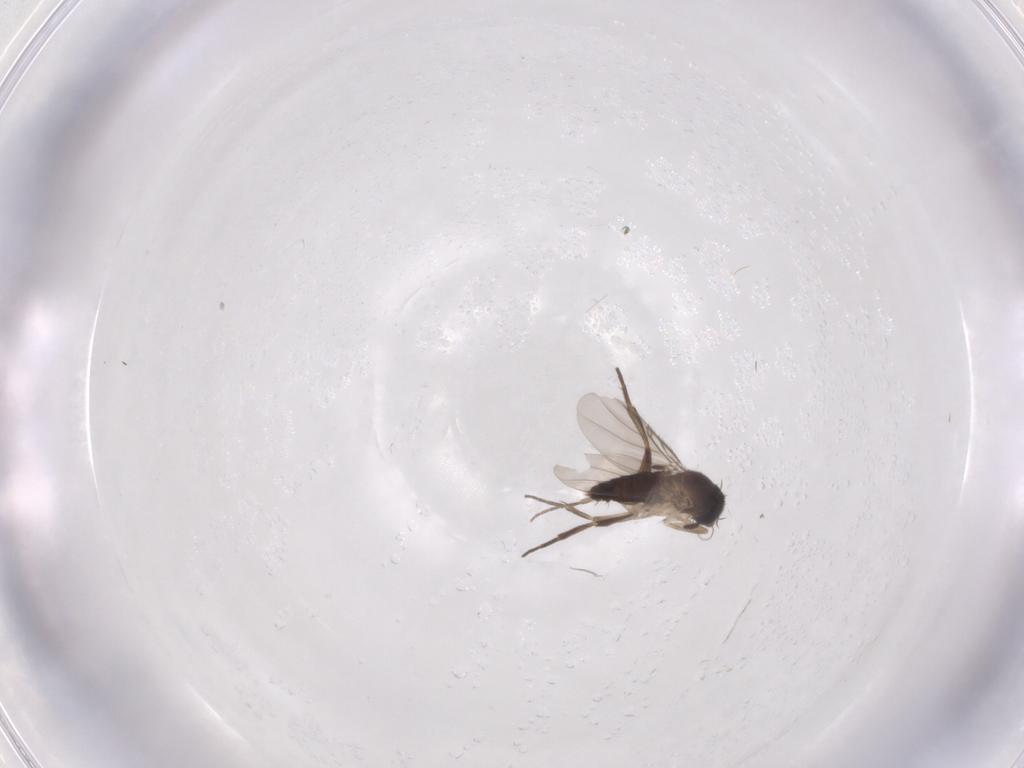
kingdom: Animalia
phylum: Arthropoda
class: Insecta
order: Diptera
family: Phoridae
